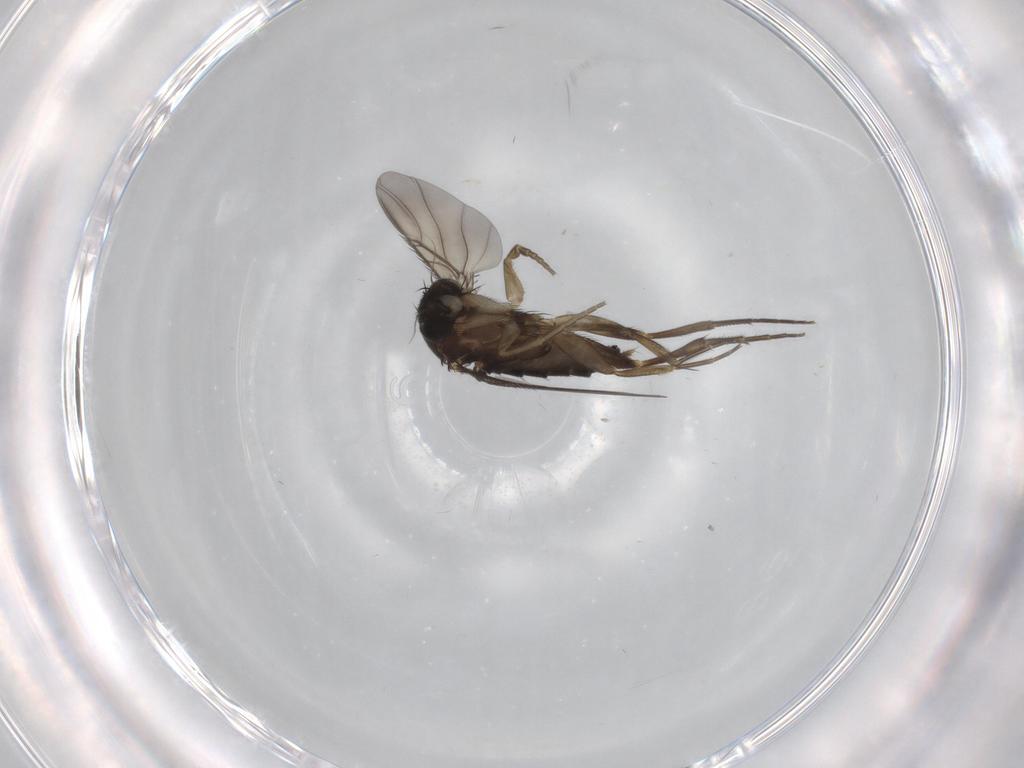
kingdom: Animalia
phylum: Arthropoda
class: Insecta
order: Diptera
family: Phoridae
